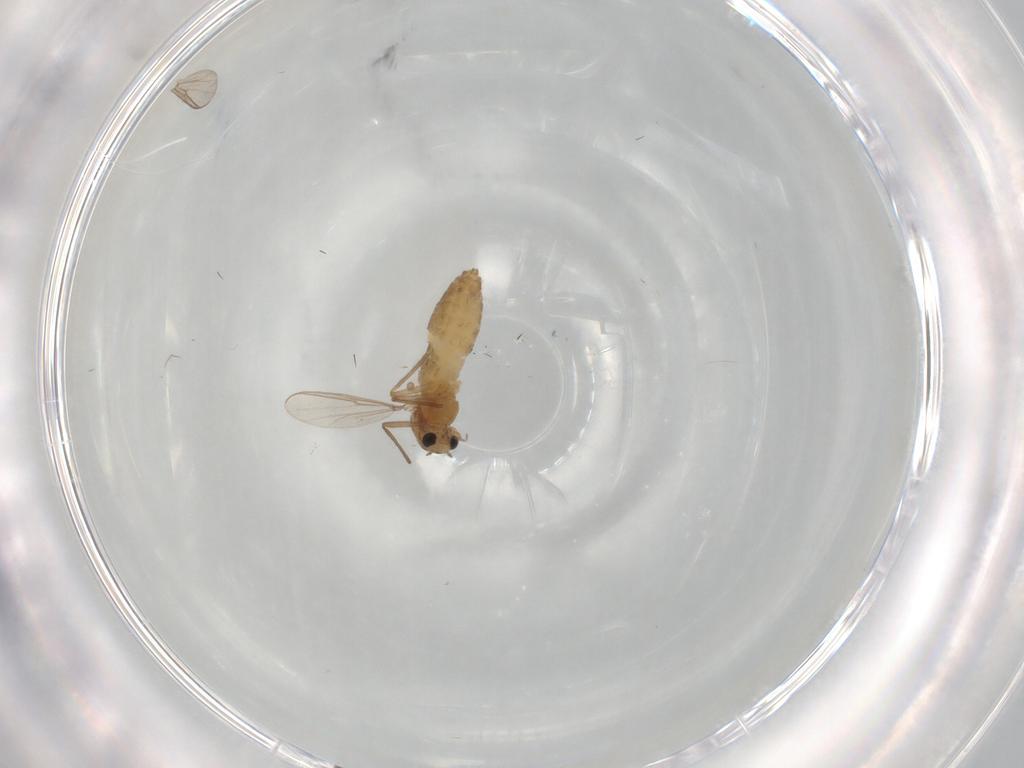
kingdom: Animalia
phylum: Arthropoda
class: Insecta
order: Diptera
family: Chironomidae
